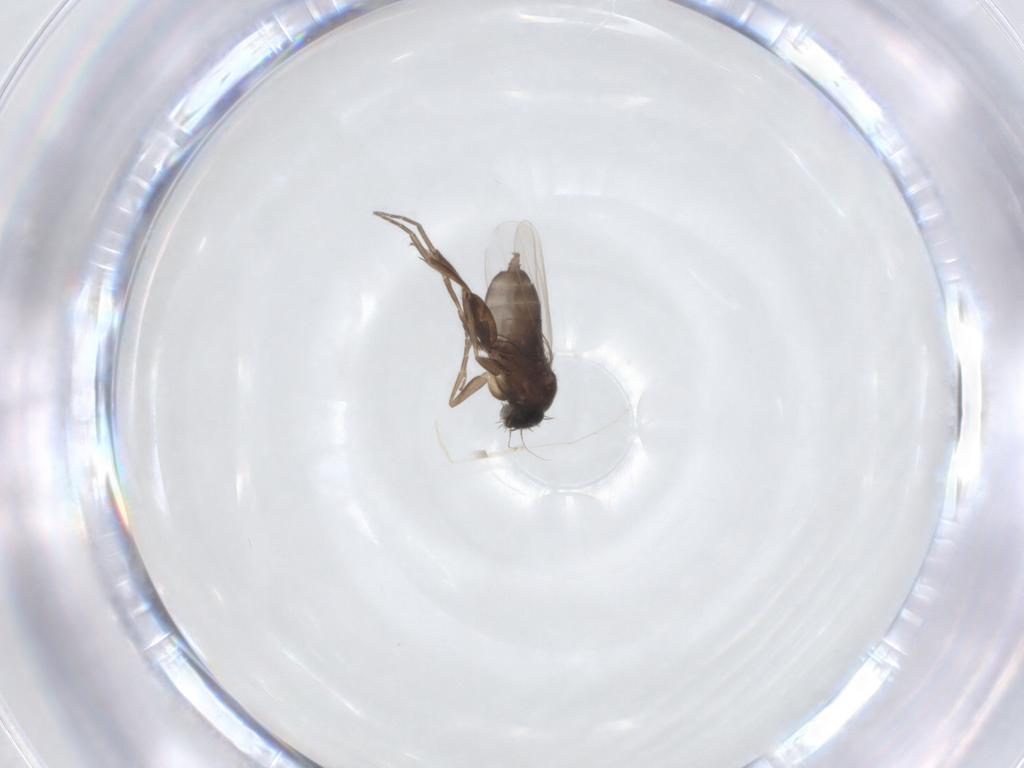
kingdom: Animalia
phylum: Arthropoda
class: Insecta
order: Diptera
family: Phoridae
